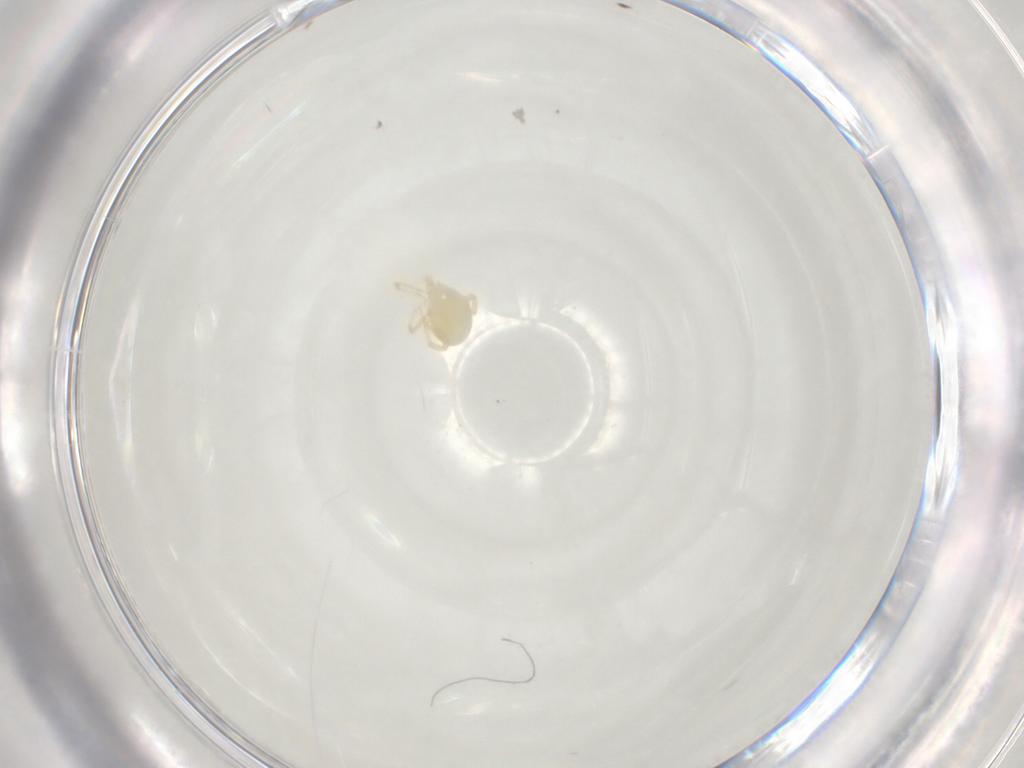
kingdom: Animalia
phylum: Arthropoda
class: Arachnida
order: Trombidiformes
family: Eupodidae
